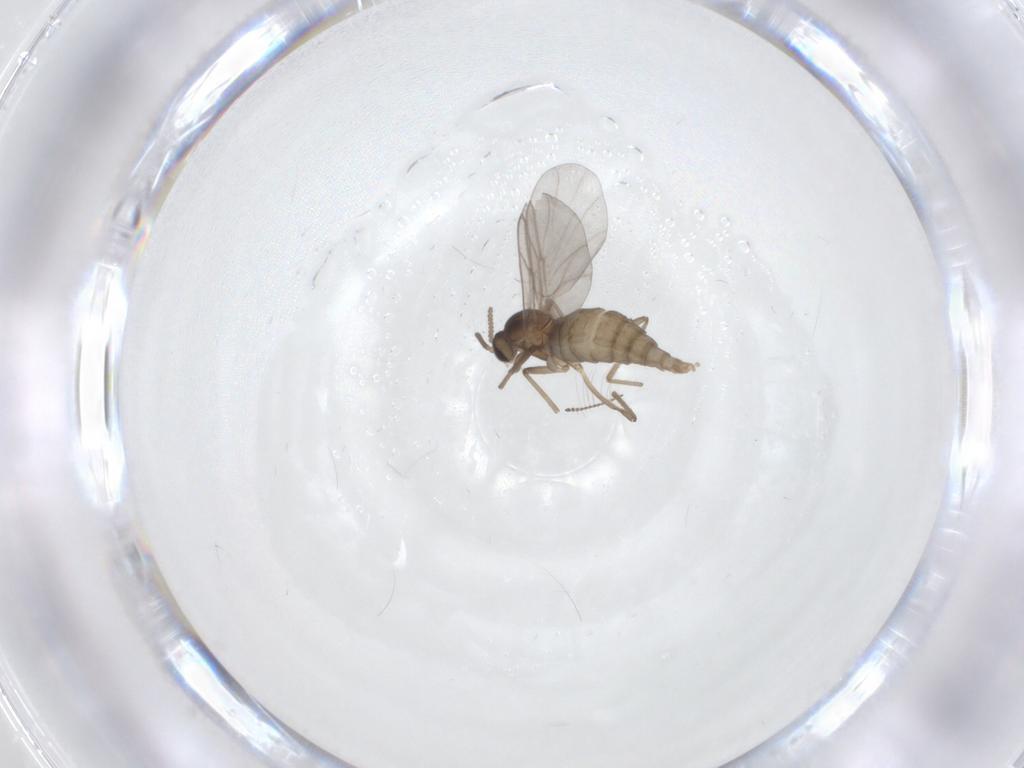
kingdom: Animalia
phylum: Arthropoda
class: Insecta
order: Diptera
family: Cecidomyiidae
